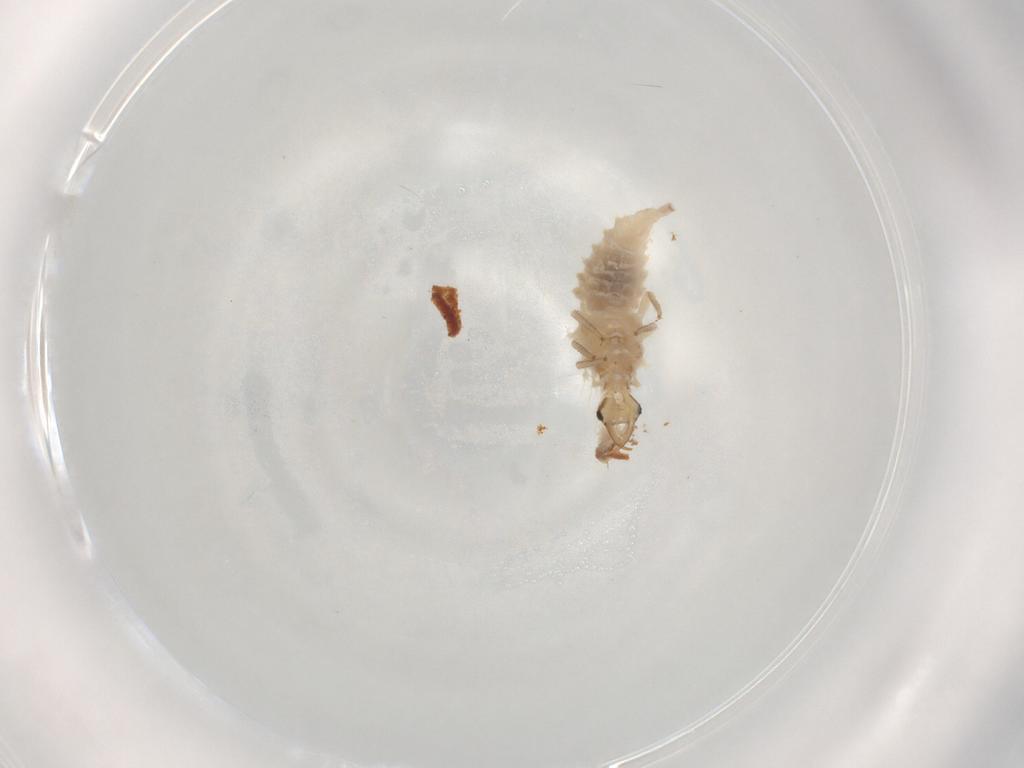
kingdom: Animalia
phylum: Arthropoda
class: Insecta
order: Neuroptera
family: Chrysopidae
